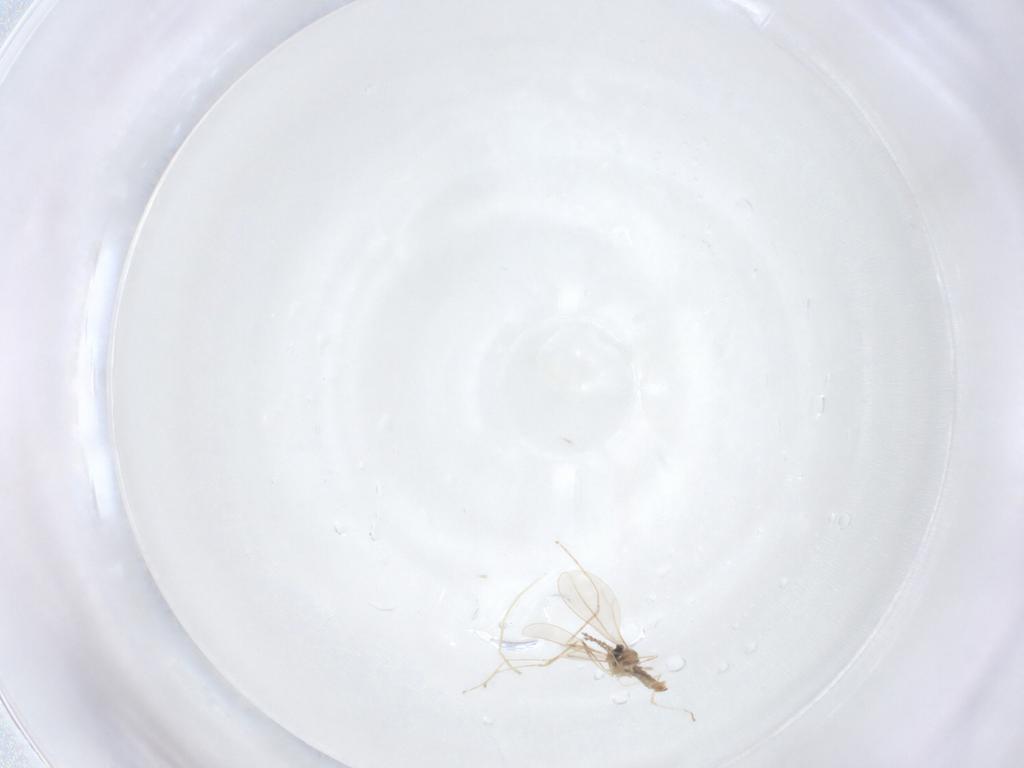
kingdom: Animalia
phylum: Arthropoda
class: Insecta
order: Diptera
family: Cecidomyiidae
